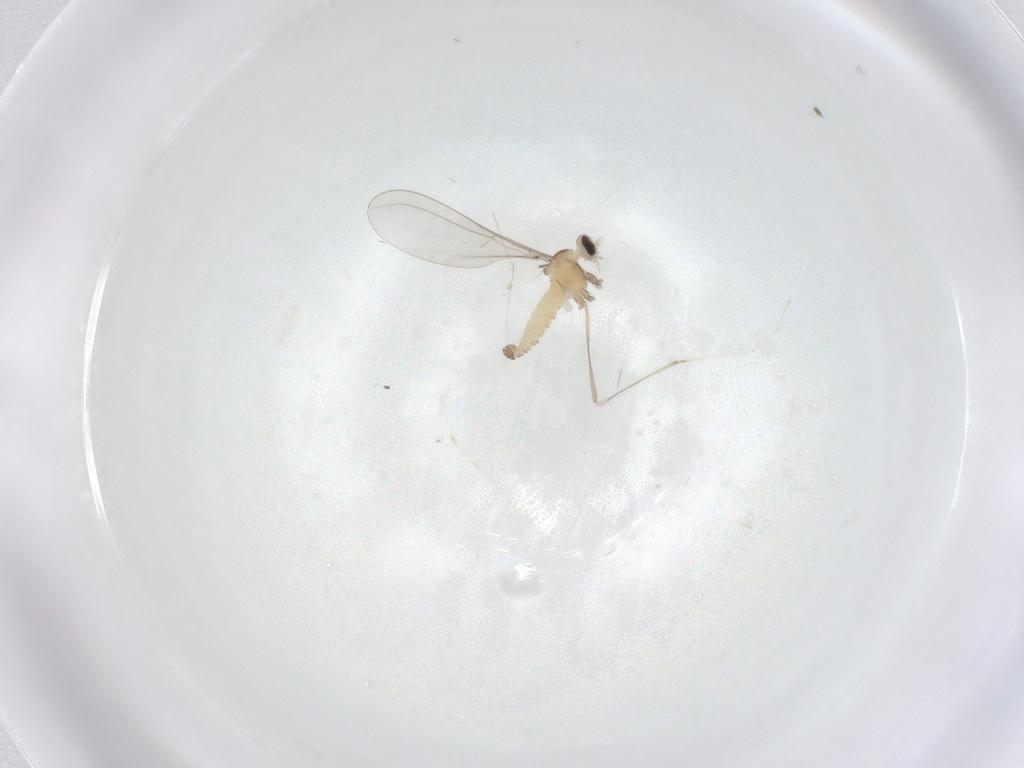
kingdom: Animalia
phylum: Arthropoda
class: Insecta
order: Diptera
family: Cecidomyiidae
